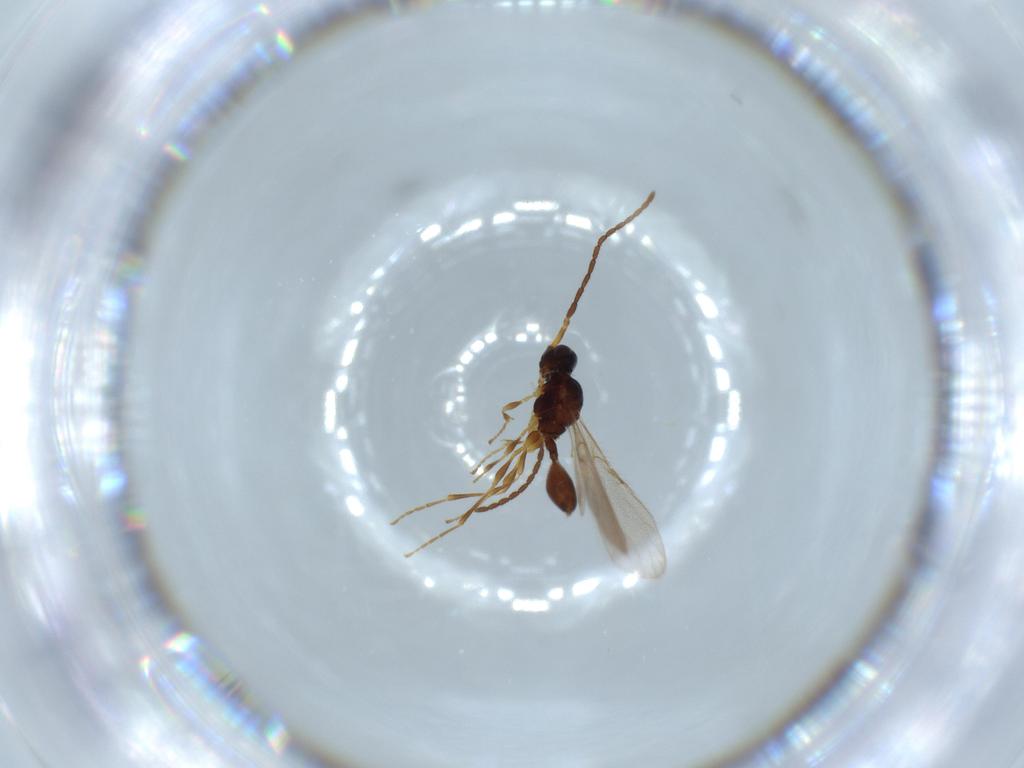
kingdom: Animalia
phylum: Arthropoda
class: Insecta
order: Hymenoptera
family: Diapriidae
